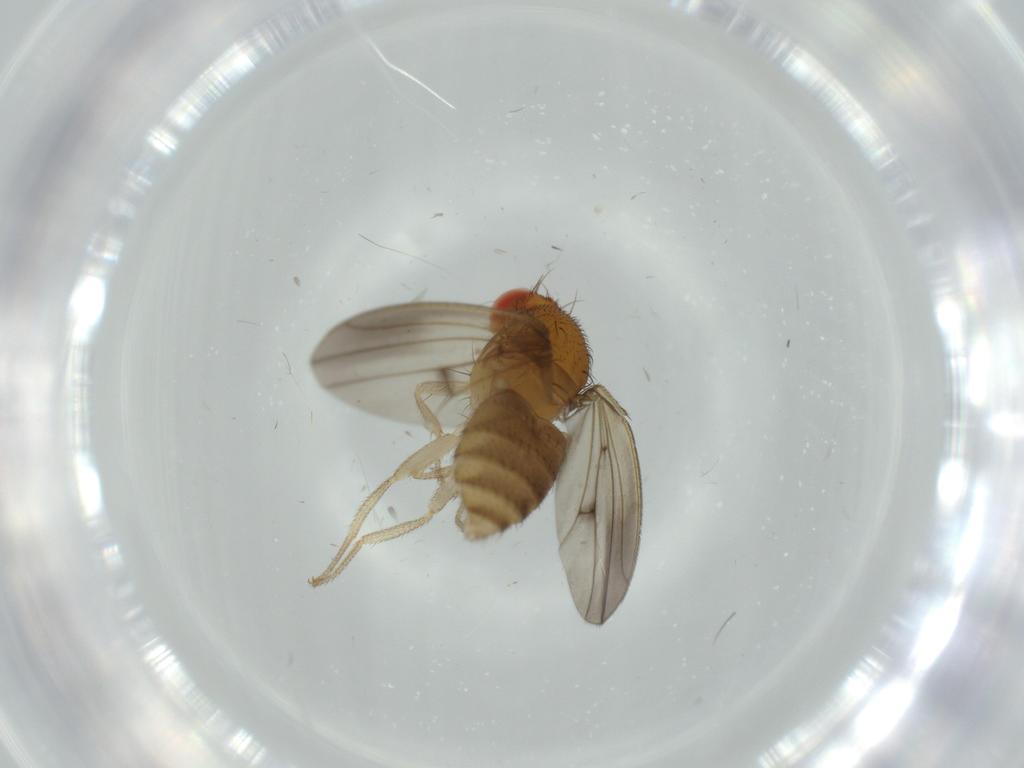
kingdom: Animalia
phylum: Arthropoda
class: Insecta
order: Diptera
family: Drosophilidae
